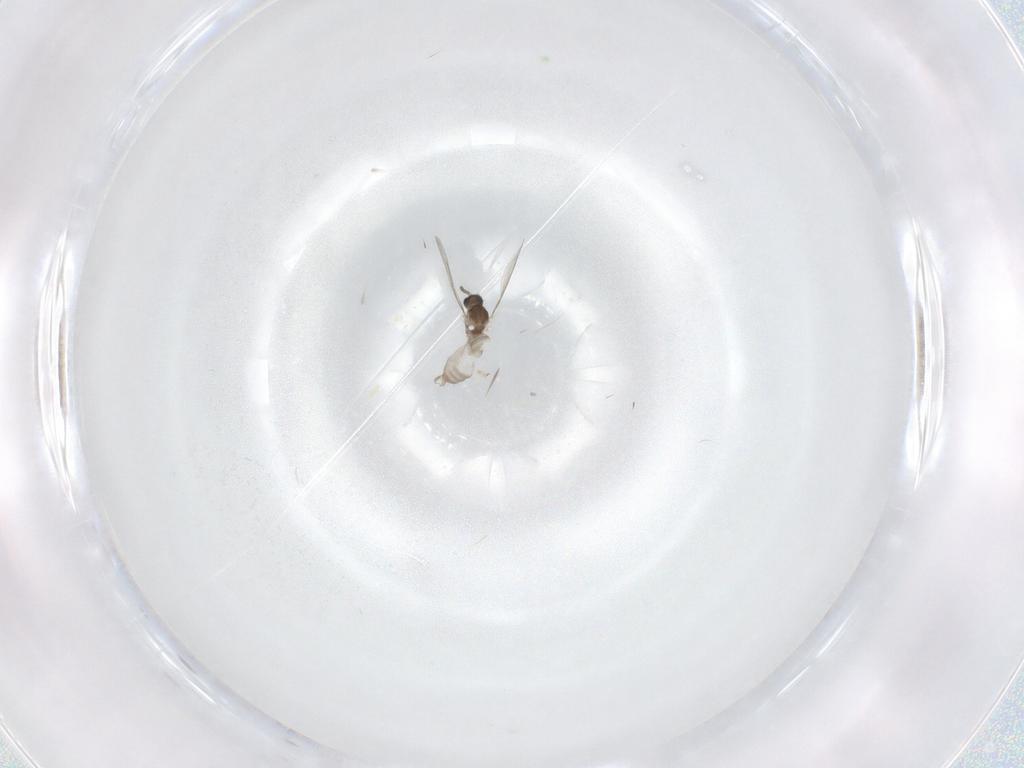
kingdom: Animalia
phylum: Arthropoda
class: Insecta
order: Diptera
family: Cecidomyiidae
